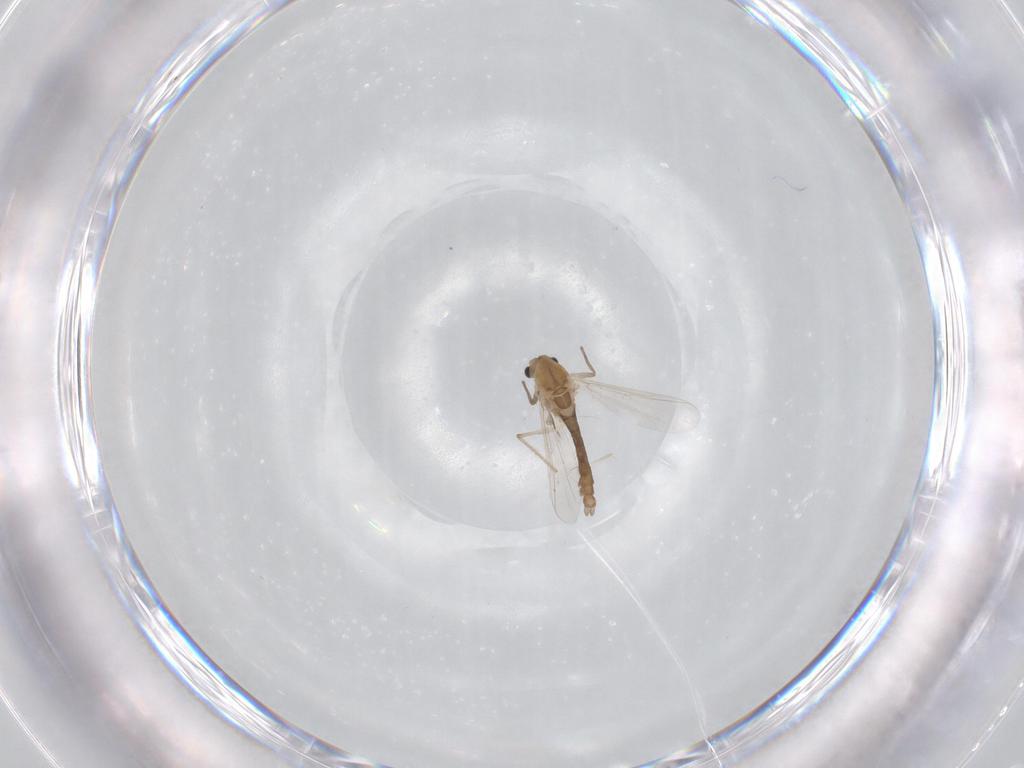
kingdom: Animalia
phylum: Arthropoda
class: Insecta
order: Diptera
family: Chironomidae
